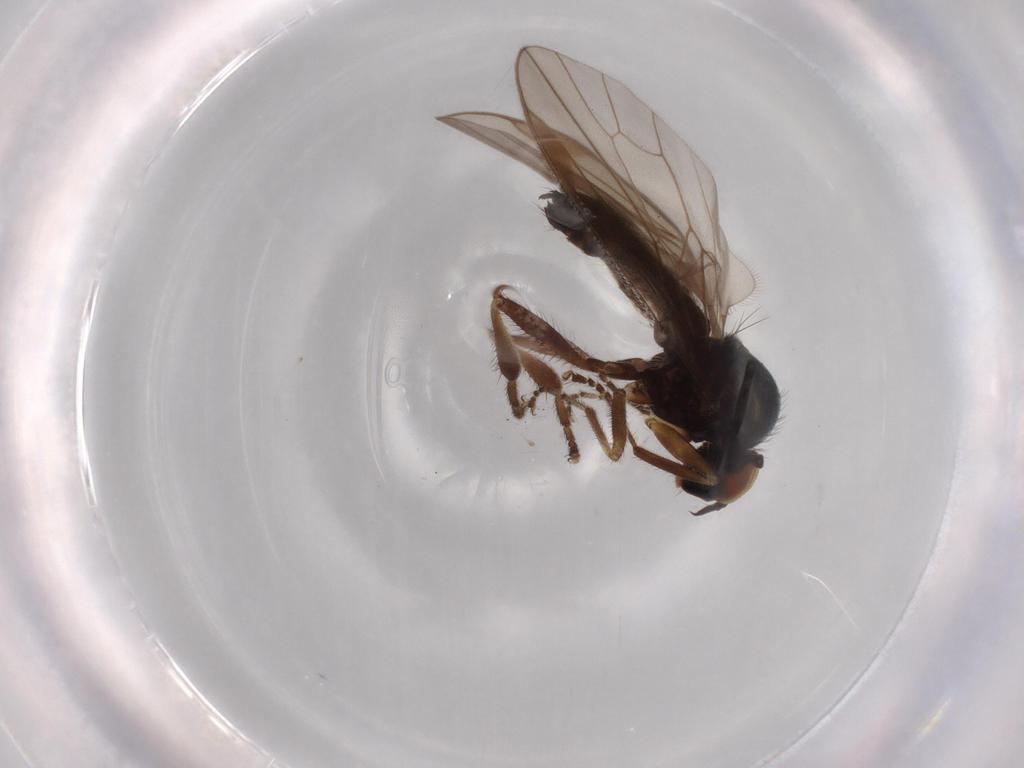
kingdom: Animalia
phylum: Arthropoda
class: Insecta
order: Diptera
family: Hybotidae
